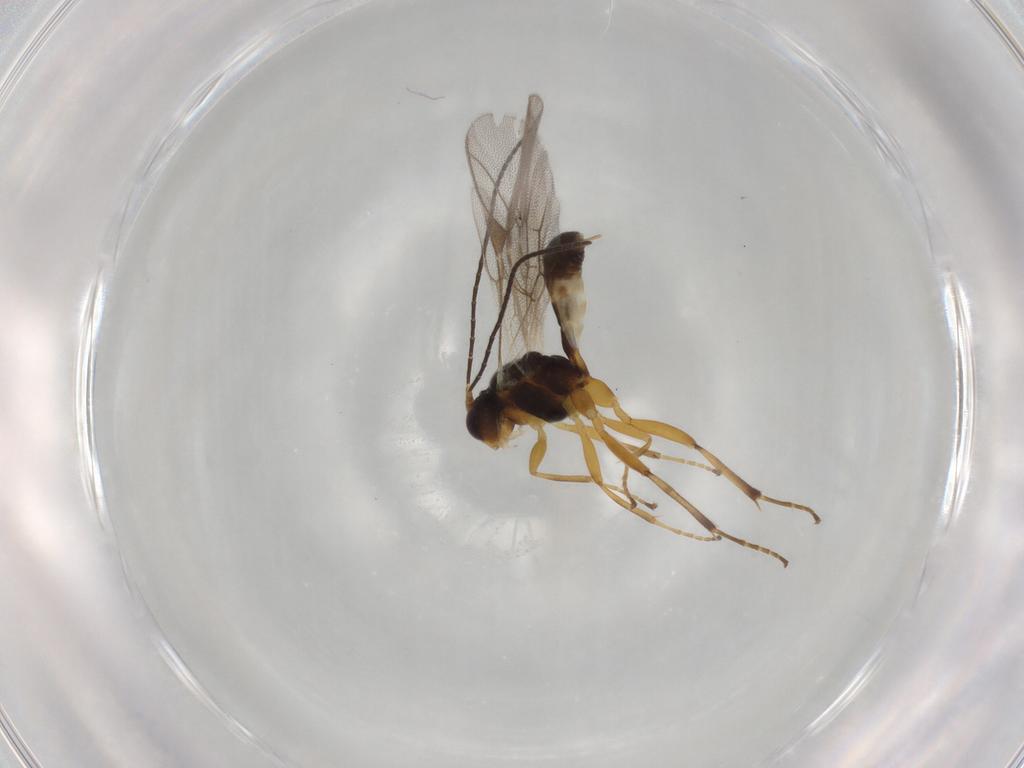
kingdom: Animalia
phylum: Arthropoda
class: Insecta
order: Hymenoptera
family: Ichneumonidae
